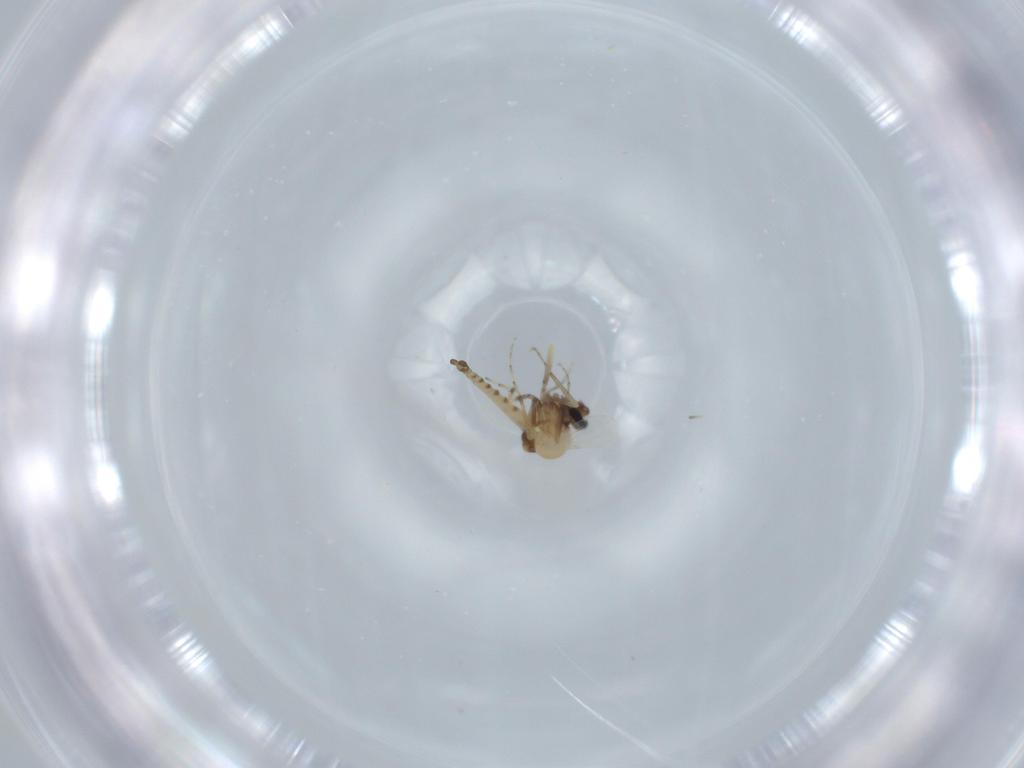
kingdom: Animalia
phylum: Arthropoda
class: Insecta
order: Diptera
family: Ceratopogonidae
